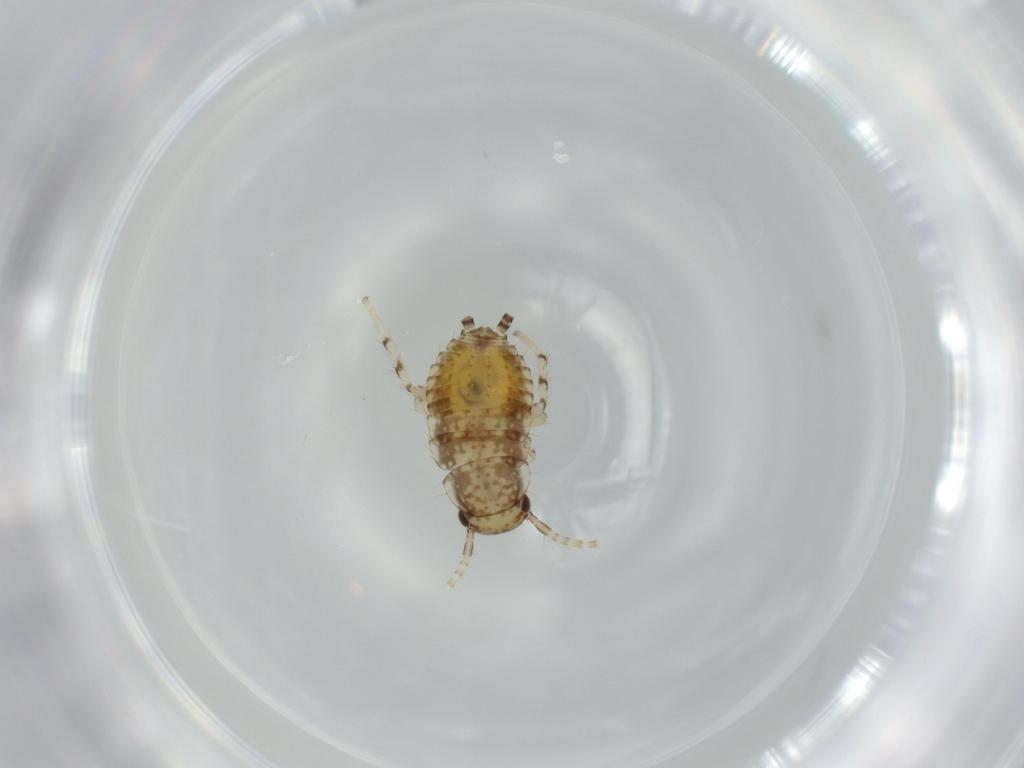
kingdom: Animalia
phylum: Arthropoda
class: Insecta
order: Blattodea
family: Ectobiidae
